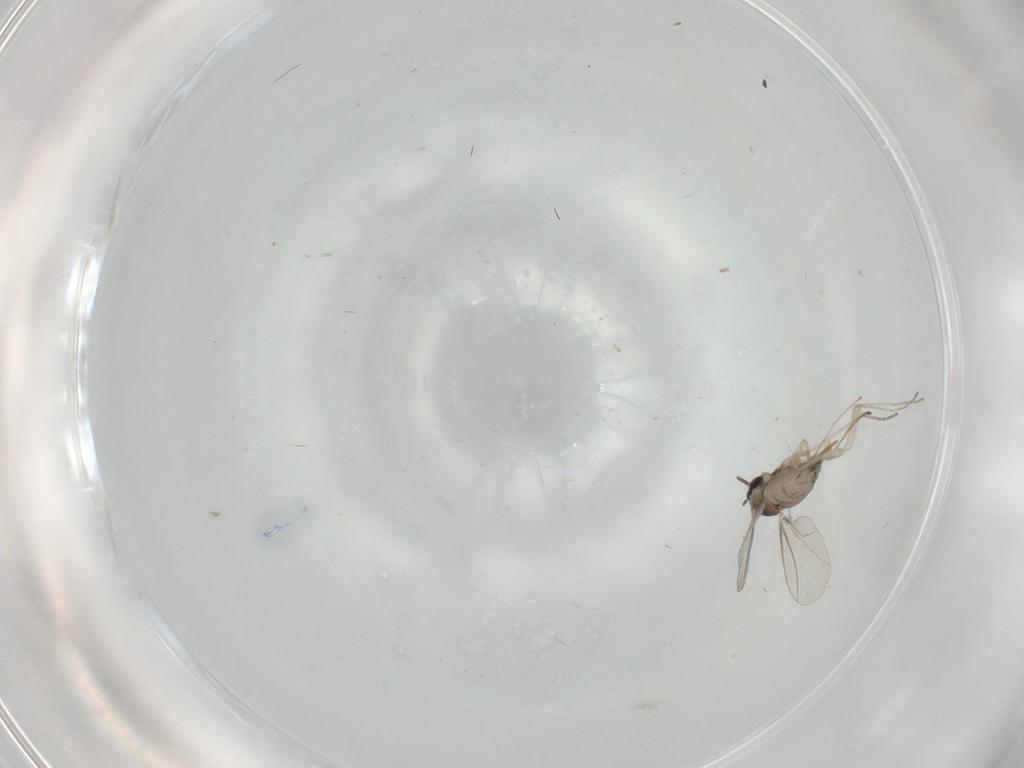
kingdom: Animalia
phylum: Arthropoda
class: Insecta
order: Diptera
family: Cecidomyiidae
